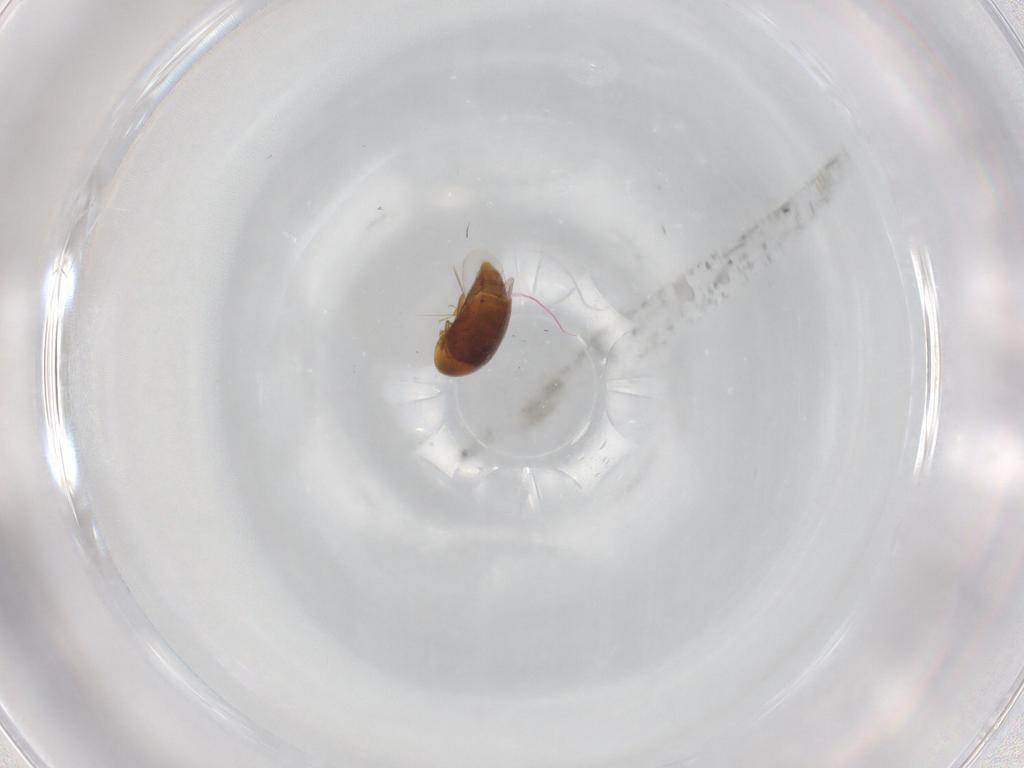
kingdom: Animalia
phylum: Arthropoda
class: Insecta
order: Coleoptera
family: Corylophidae
